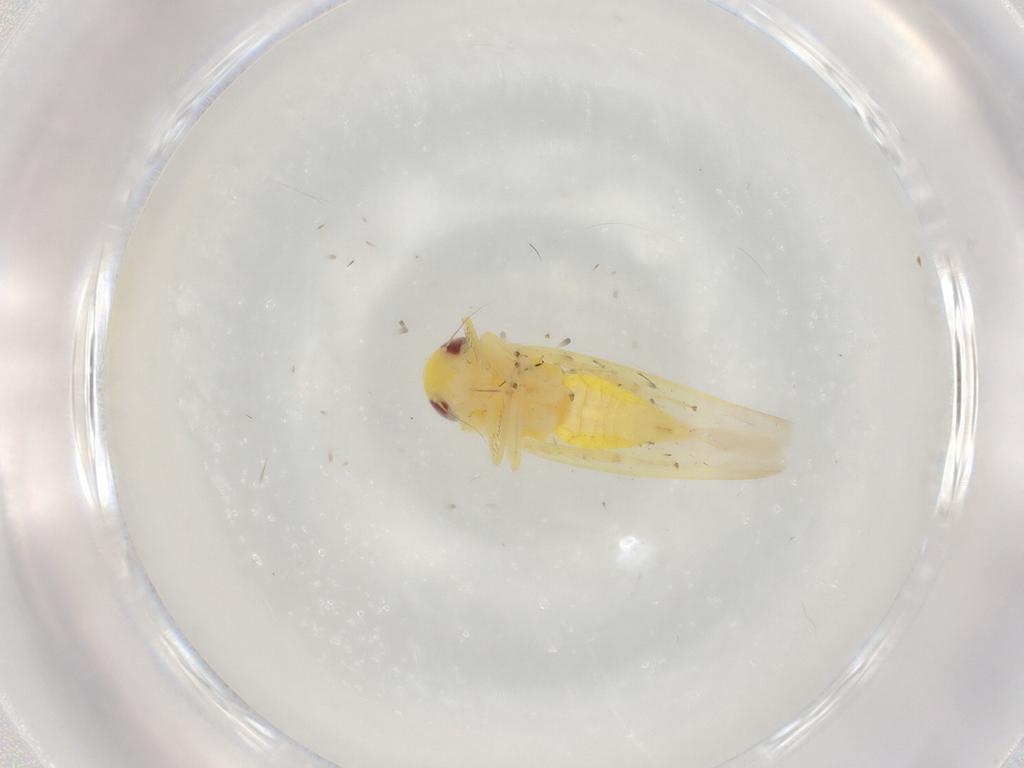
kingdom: Animalia
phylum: Arthropoda
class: Insecta
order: Hemiptera
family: Cicadellidae
